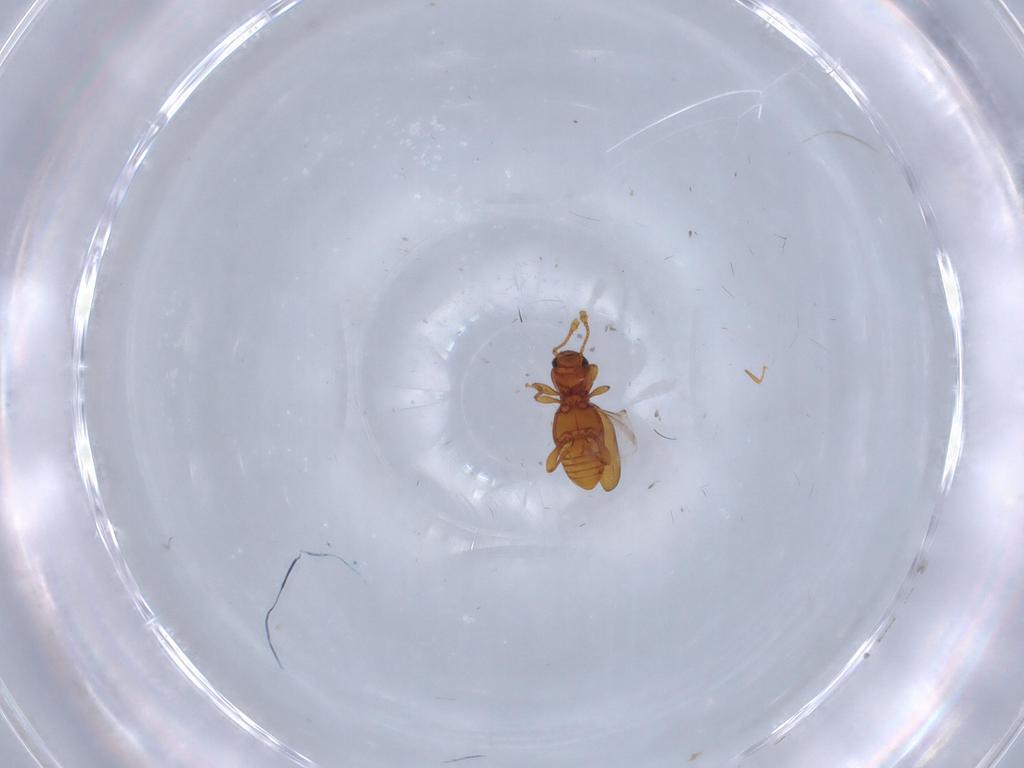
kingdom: Animalia
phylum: Arthropoda
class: Insecta
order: Coleoptera
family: Endomychidae
